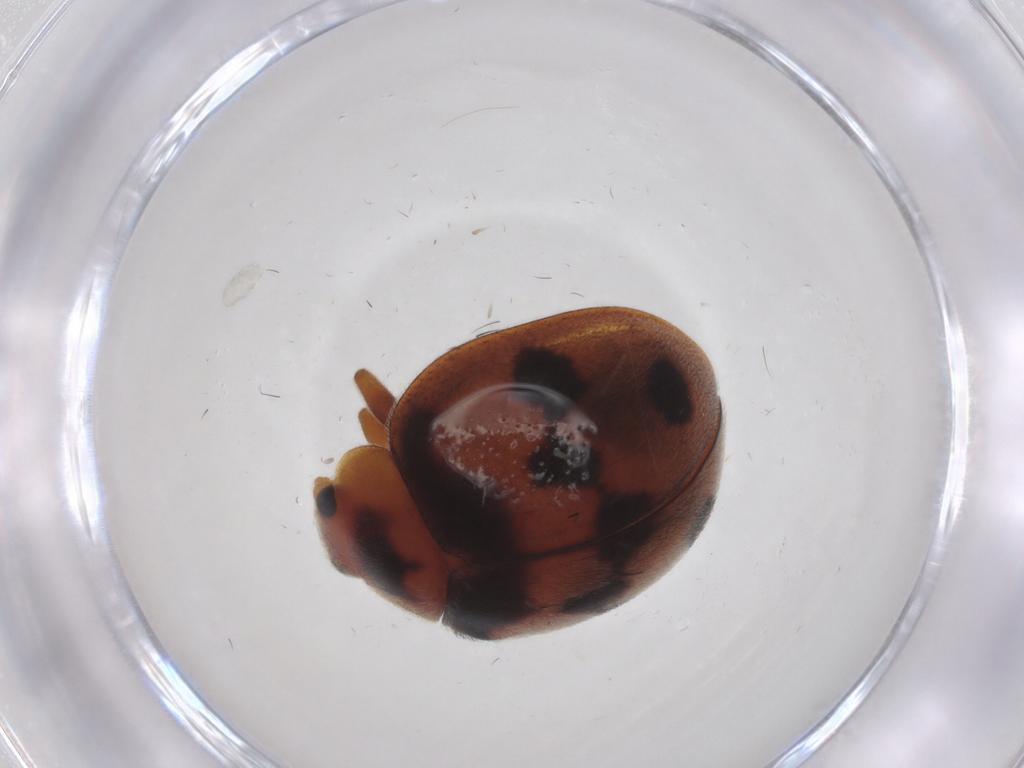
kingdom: Animalia
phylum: Arthropoda
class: Insecta
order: Coleoptera
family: Coccinellidae
